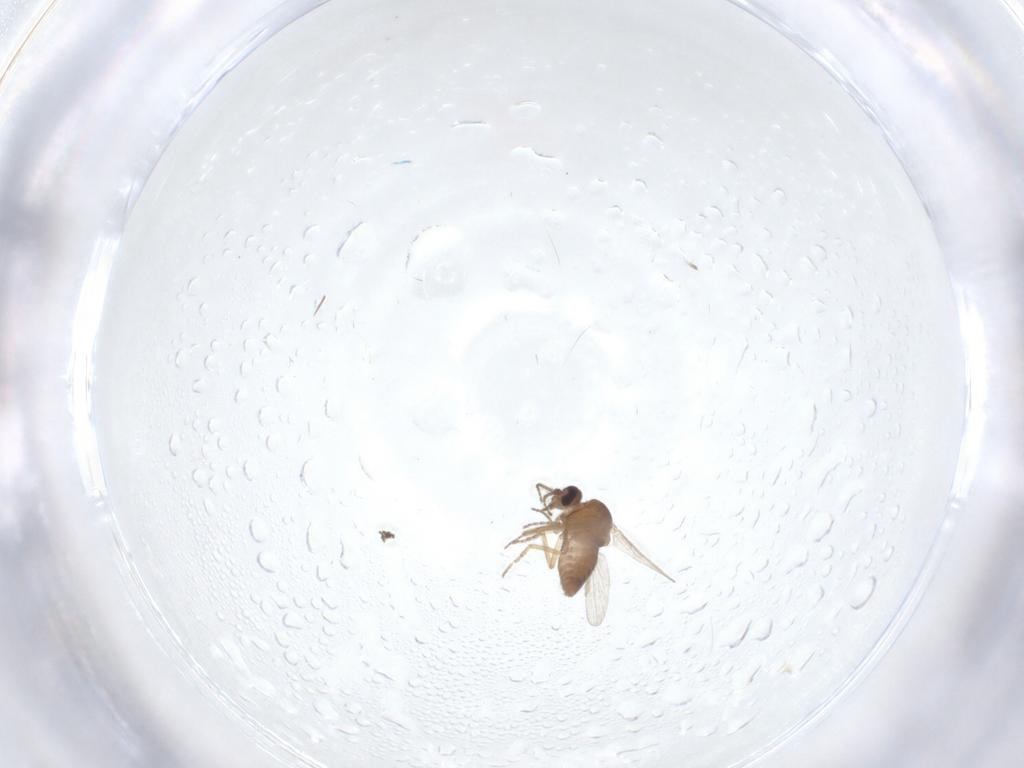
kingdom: Animalia
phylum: Arthropoda
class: Insecta
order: Diptera
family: Ceratopogonidae
